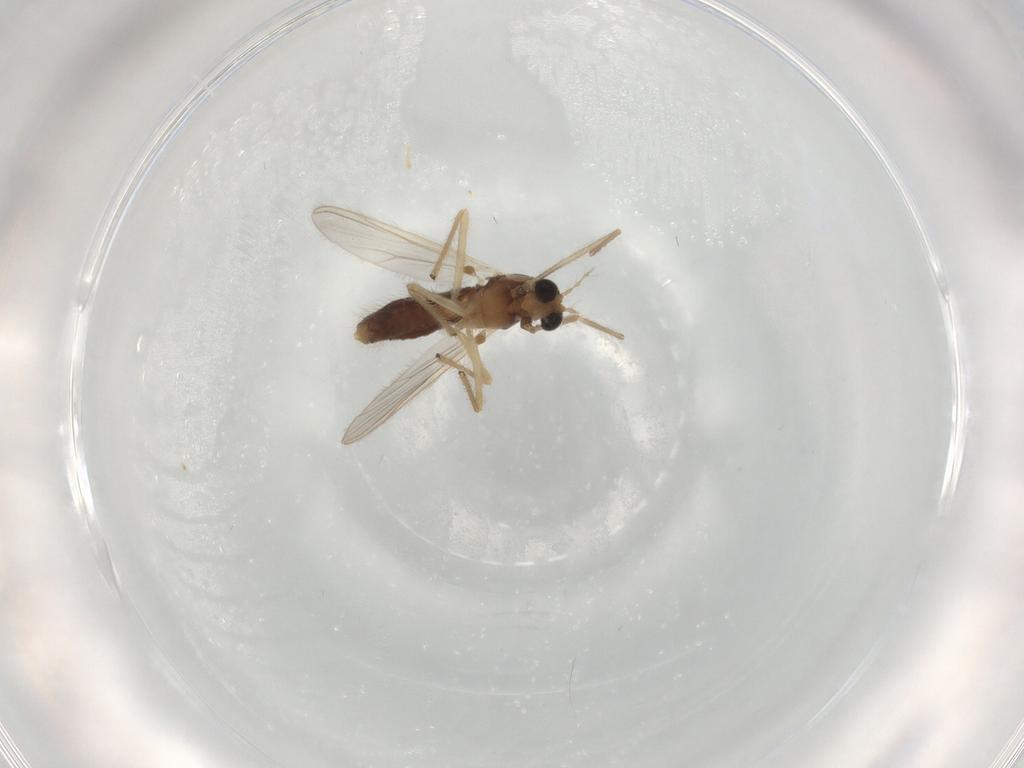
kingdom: Animalia
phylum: Arthropoda
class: Insecta
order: Diptera
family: Chironomidae
